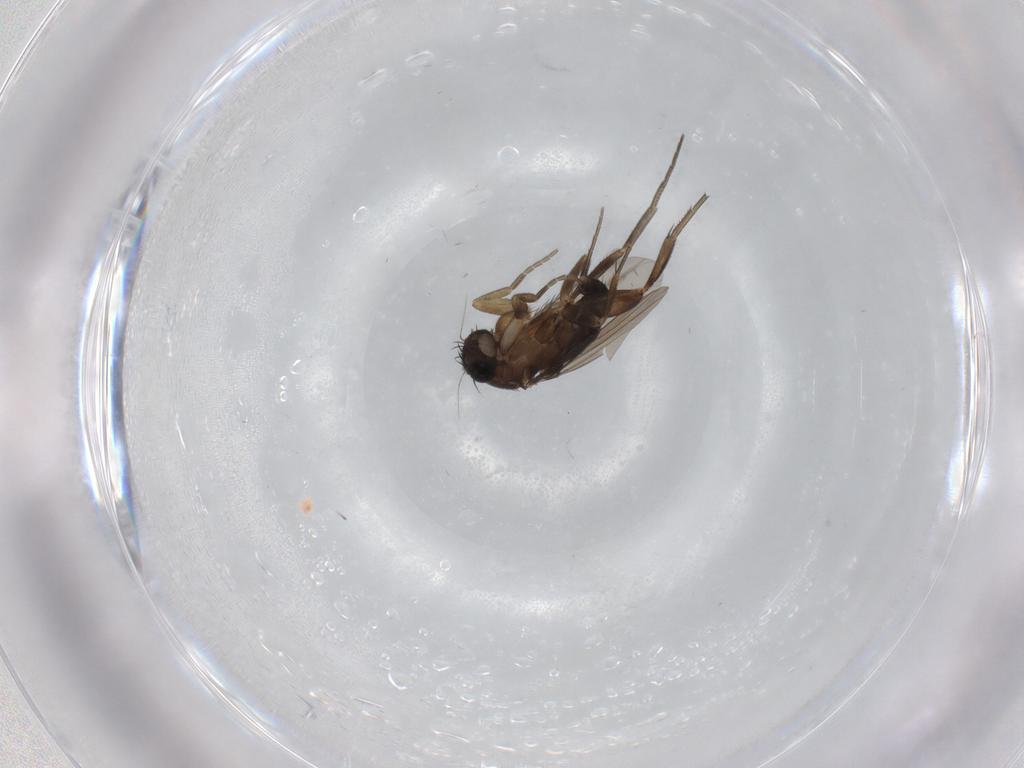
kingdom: Animalia
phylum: Arthropoda
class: Insecta
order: Diptera
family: Phoridae
